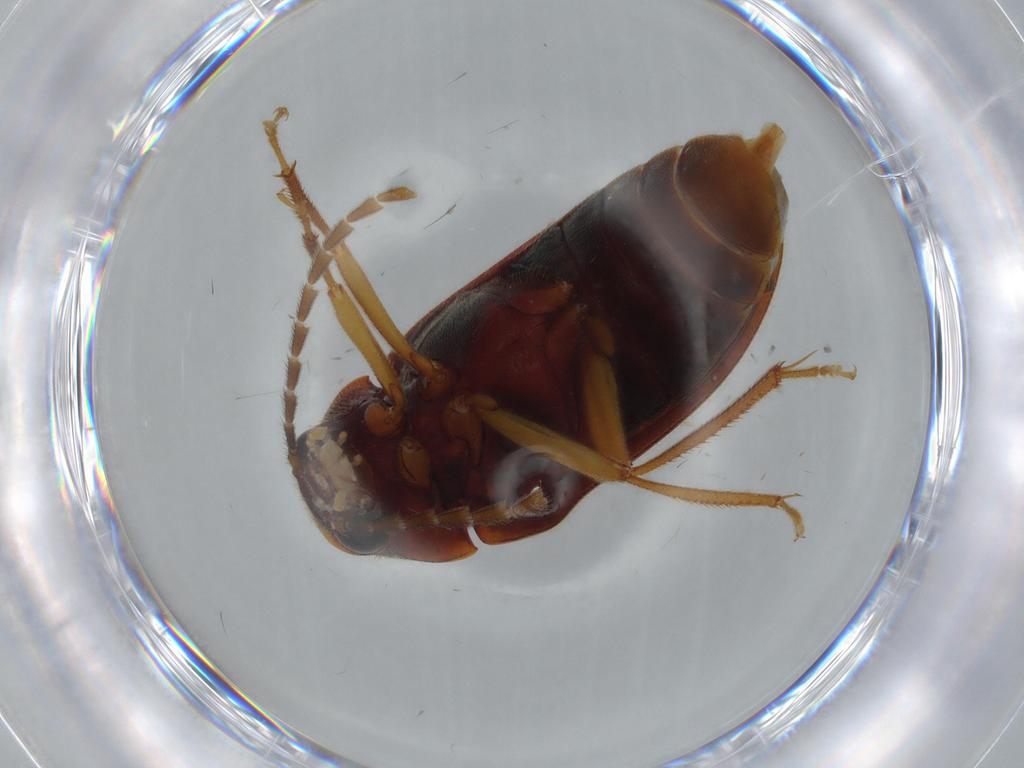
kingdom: Animalia
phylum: Arthropoda
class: Insecta
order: Coleoptera
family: Ptilodactylidae
